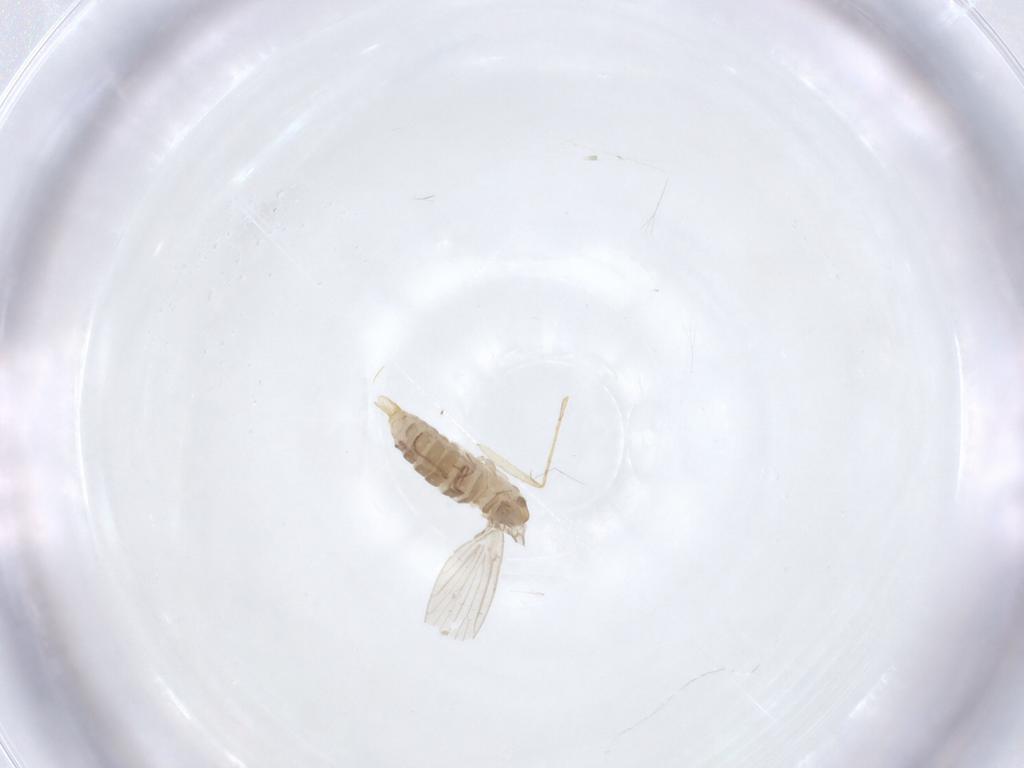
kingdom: Animalia
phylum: Arthropoda
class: Insecta
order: Diptera
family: Psychodidae
